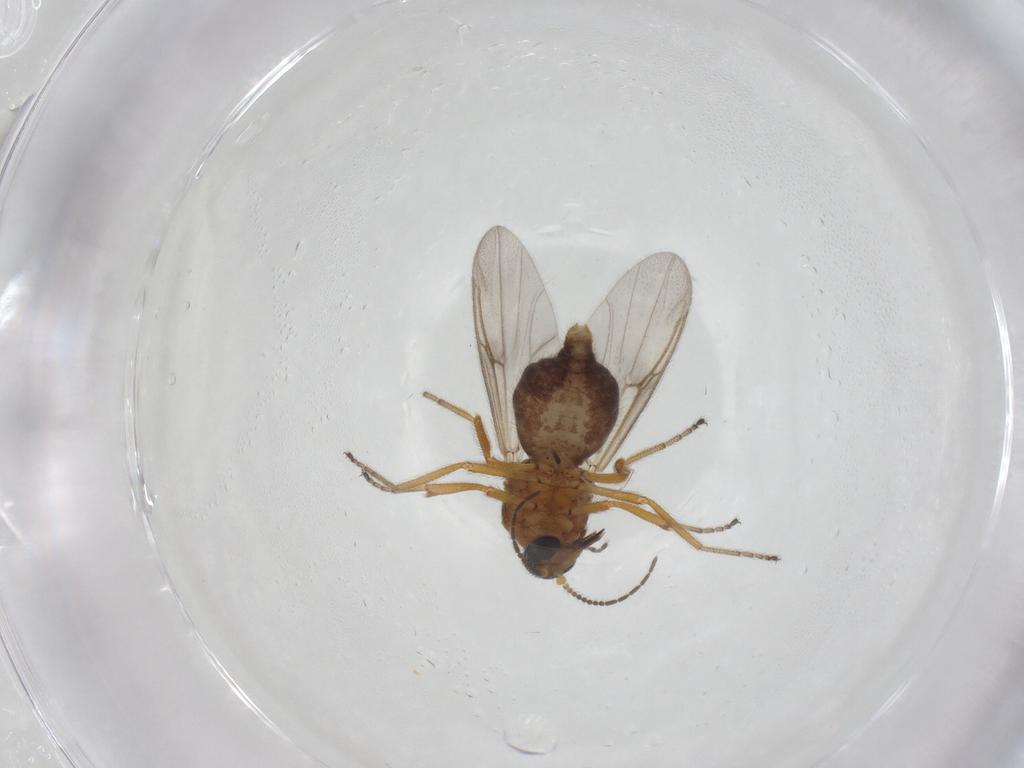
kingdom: Animalia
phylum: Arthropoda
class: Insecta
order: Diptera
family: Ceratopogonidae
